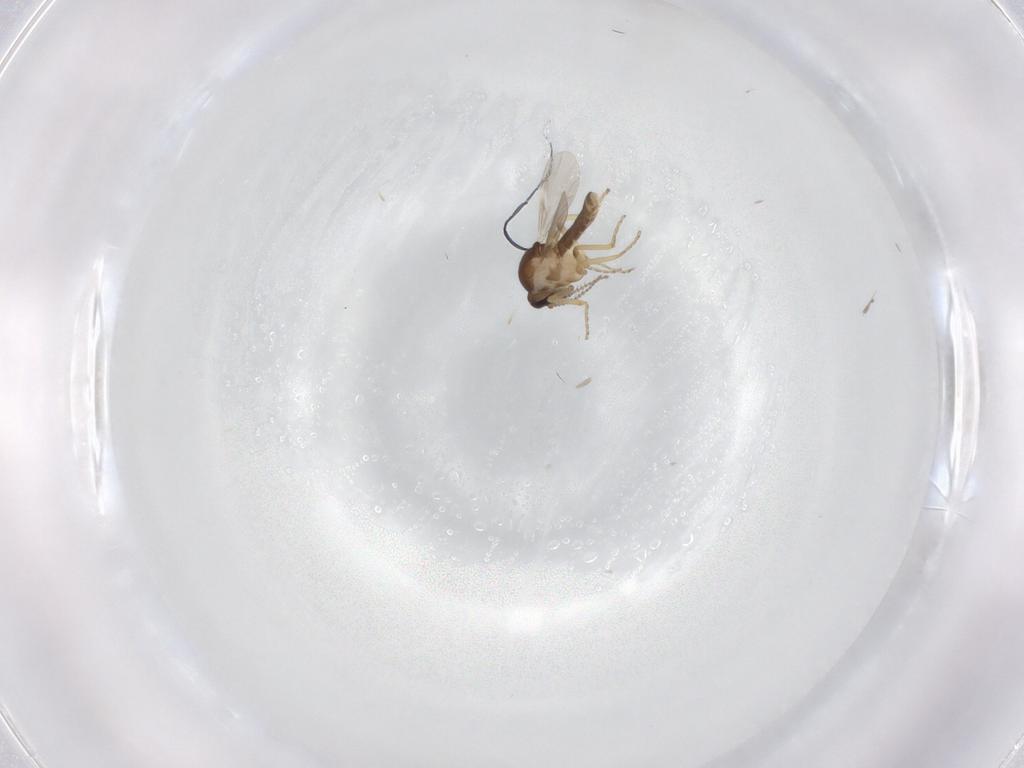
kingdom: Animalia
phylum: Arthropoda
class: Insecta
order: Diptera
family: Ceratopogonidae
